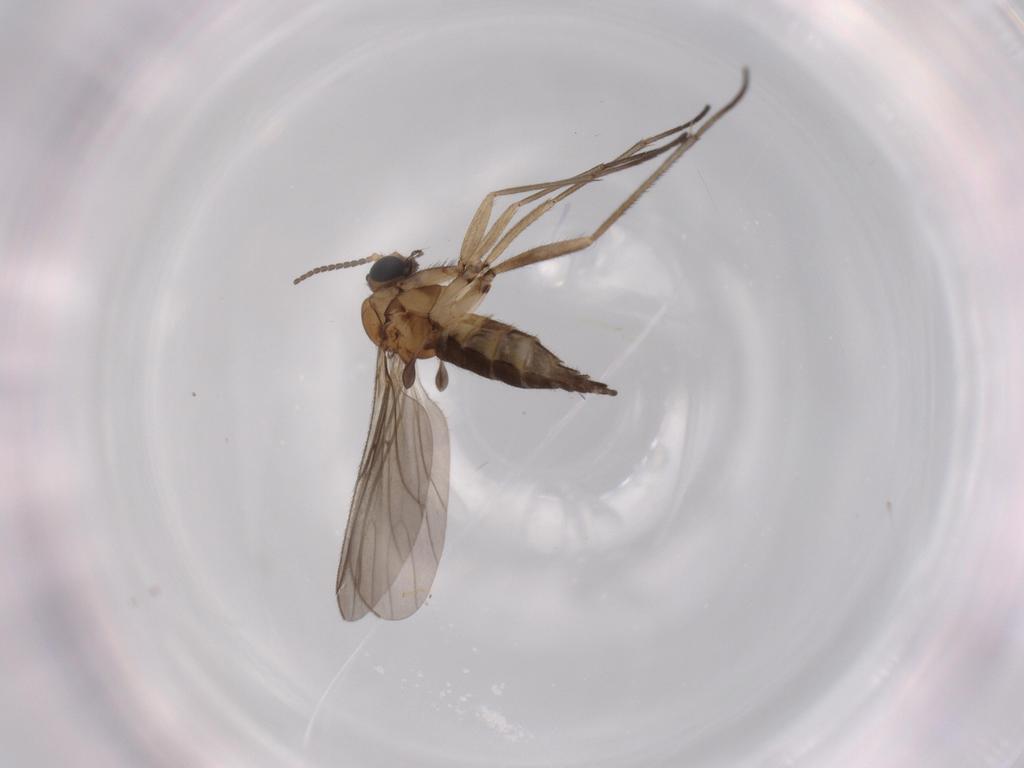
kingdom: Animalia
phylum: Arthropoda
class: Insecta
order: Diptera
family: Sciaridae
